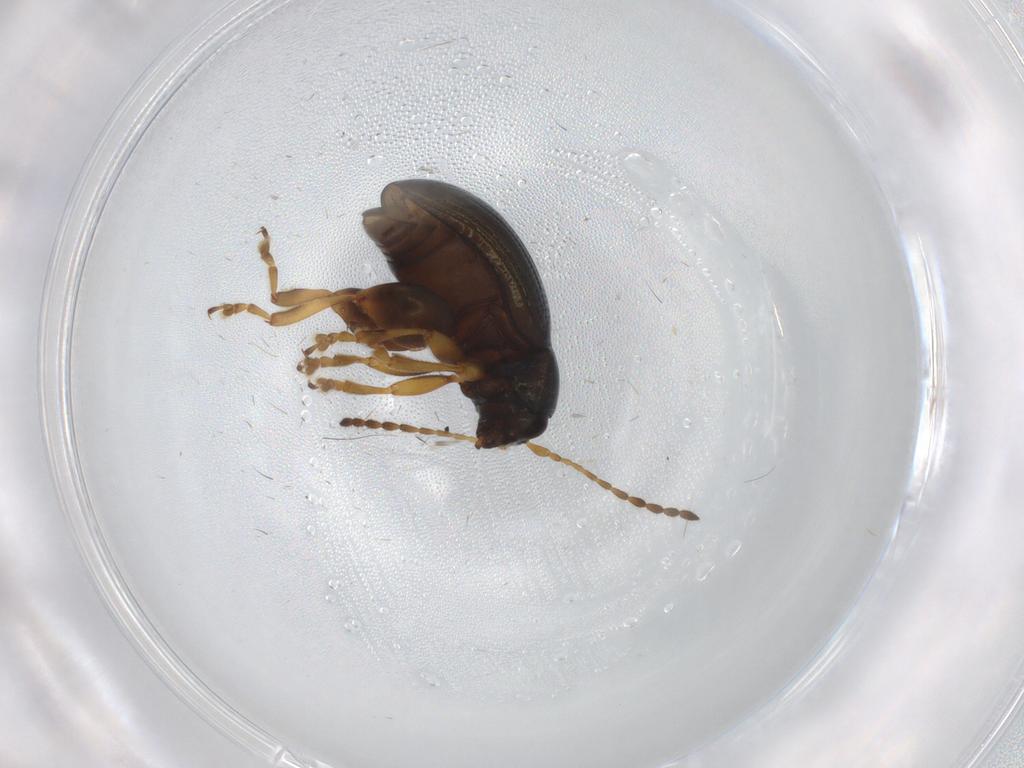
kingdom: Animalia
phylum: Arthropoda
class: Insecta
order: Coleoptera
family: Chrysomelidae
